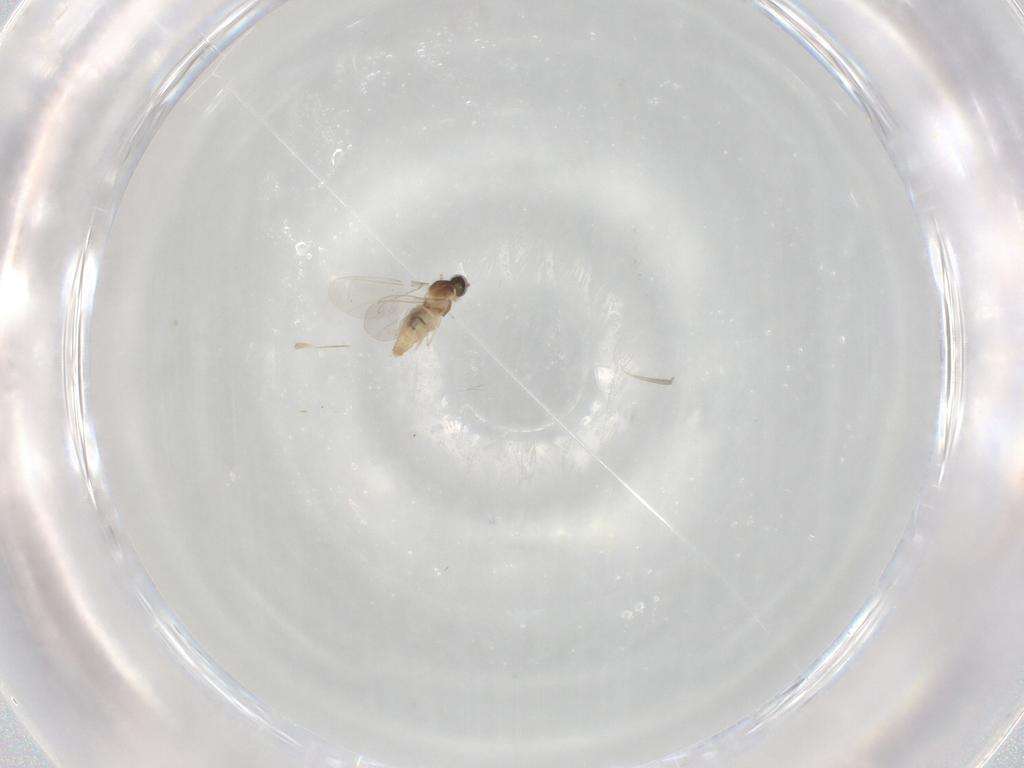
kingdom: Animalia
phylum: Arthropoda
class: Insecta
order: Diptera
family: Cecidomyiidae
